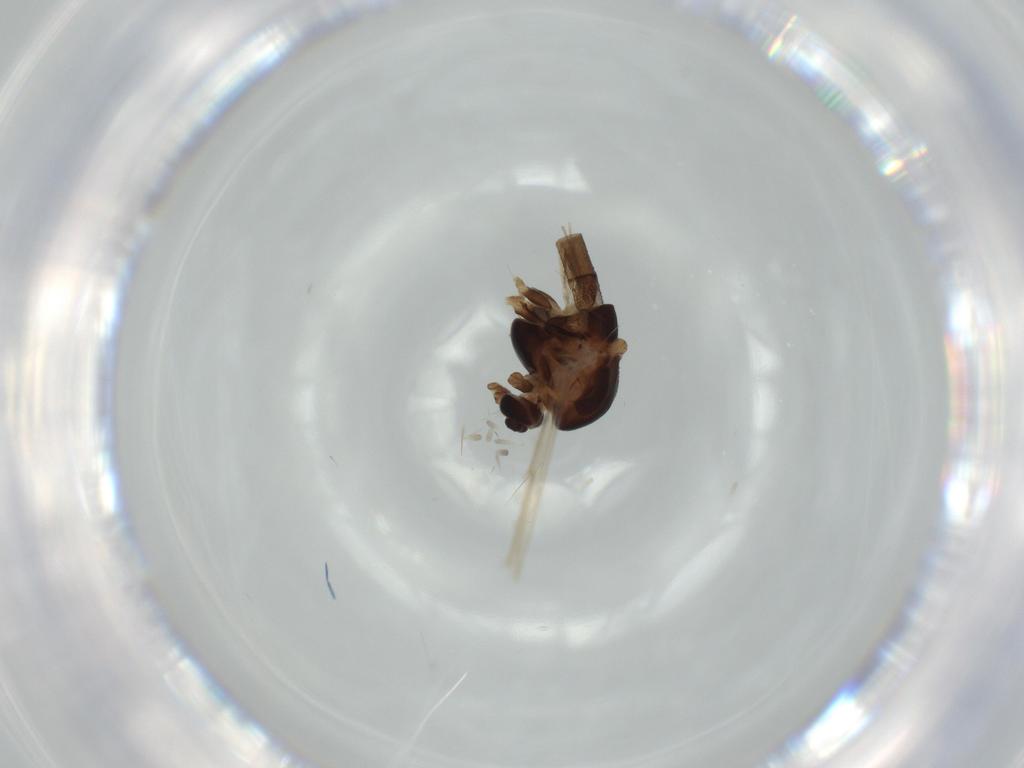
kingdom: Animalia
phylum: Arthropoda
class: Insecta
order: Diptera
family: Chironomidae
